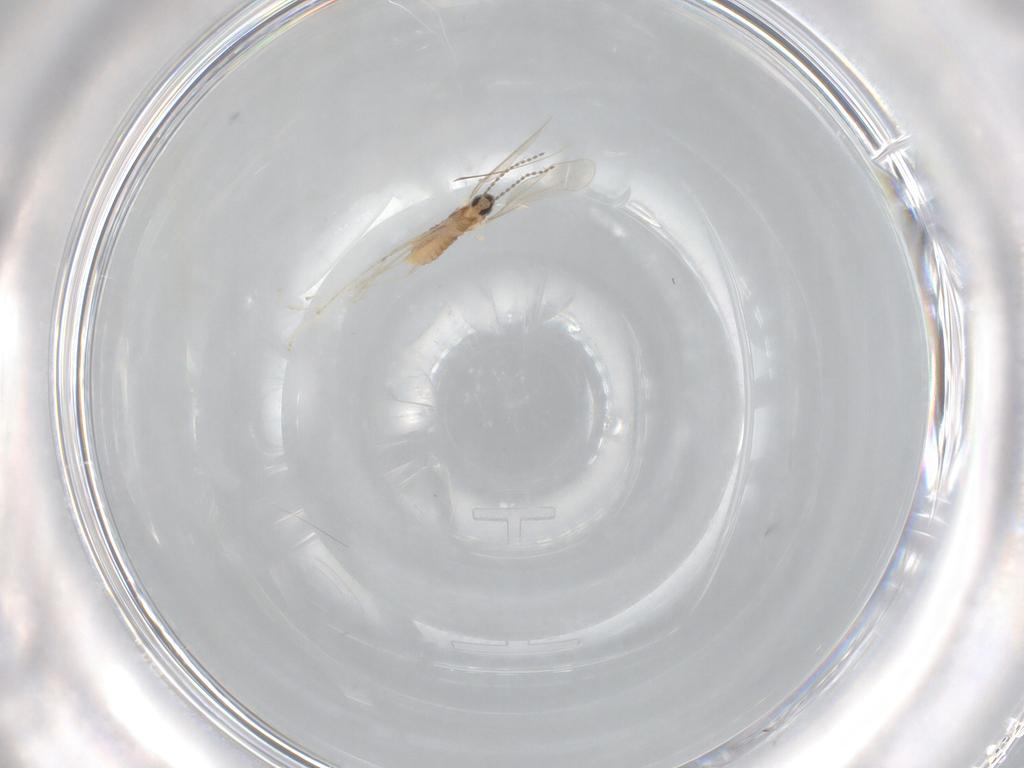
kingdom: Animalia
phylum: Arthropoda
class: Insecta
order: Diptera
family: Cecidomyiidae
